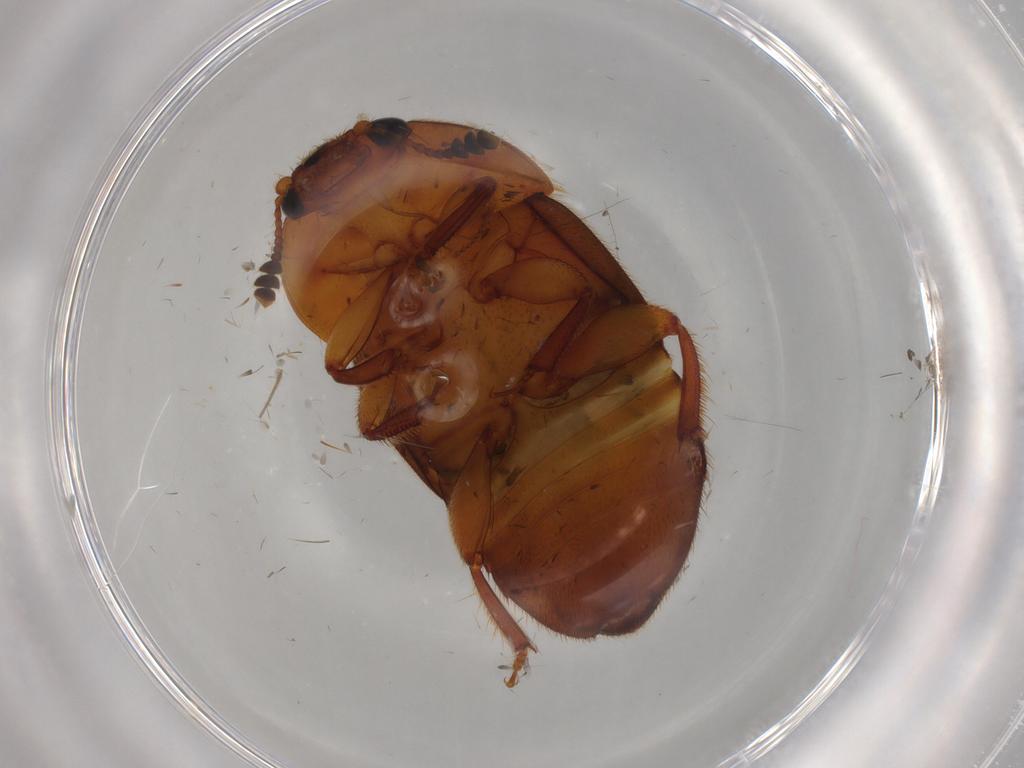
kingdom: Animalia
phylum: Arthropoda
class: Insecta
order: Coleoptera
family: Nitidulidae
